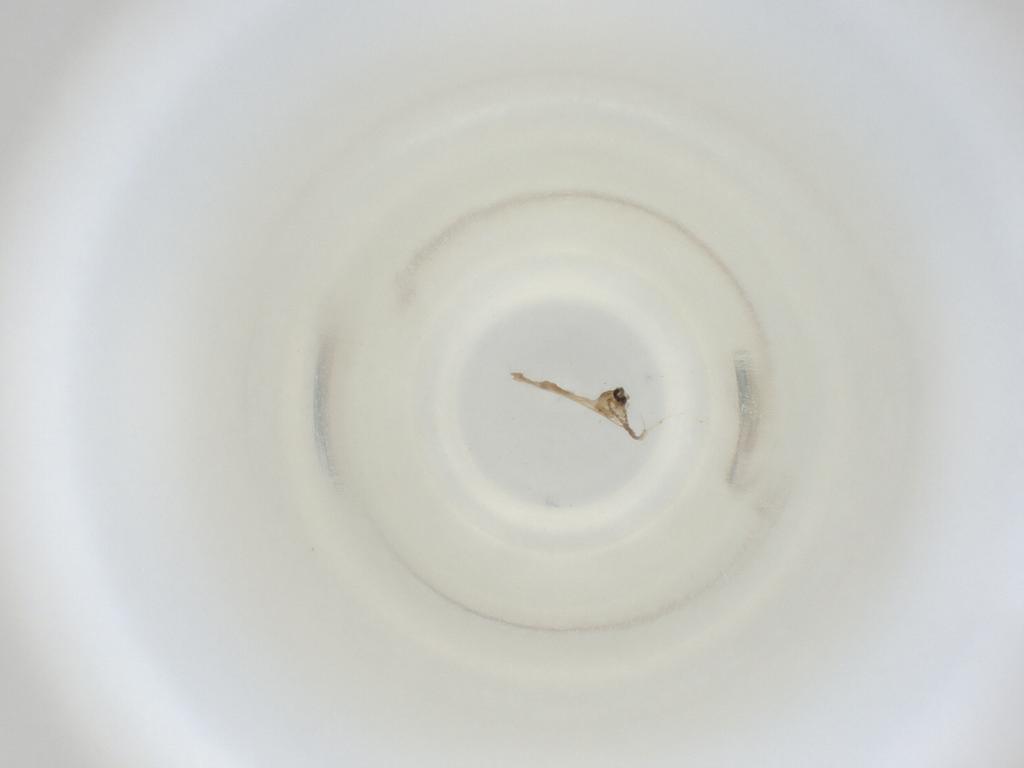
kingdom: Animalia
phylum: Arthropoda
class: Insecta
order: Diptera
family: Cecidomyiidae
